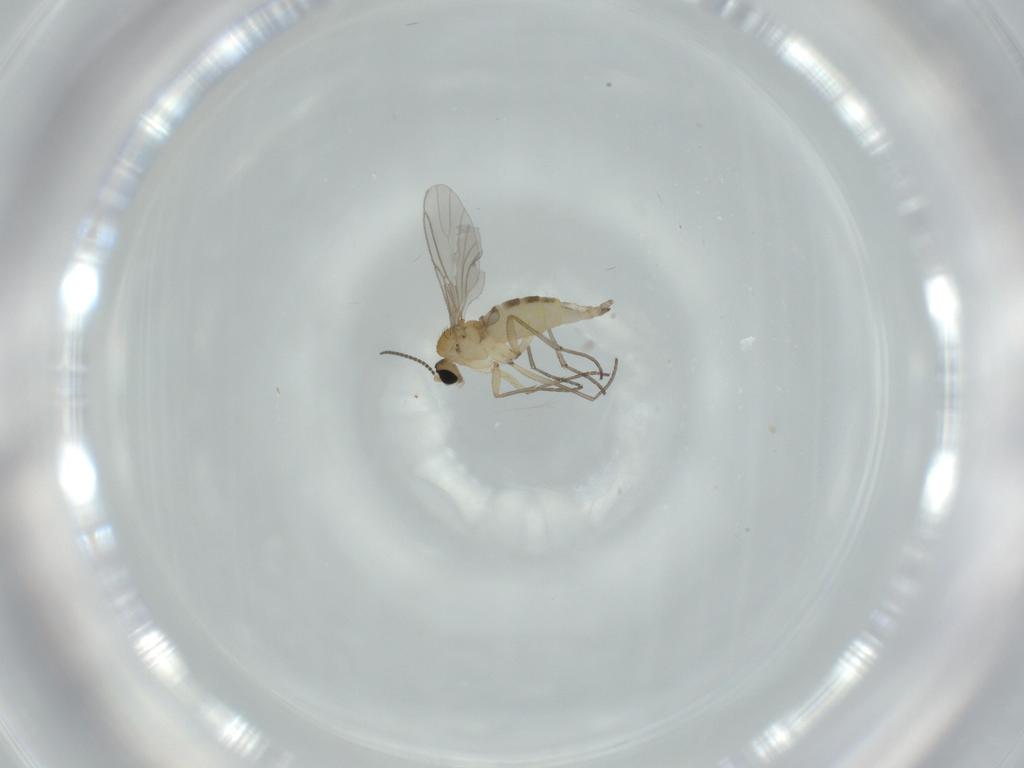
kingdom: Animalia
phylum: Arthropoda
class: Insecta
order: Diptera
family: Sciaridae
